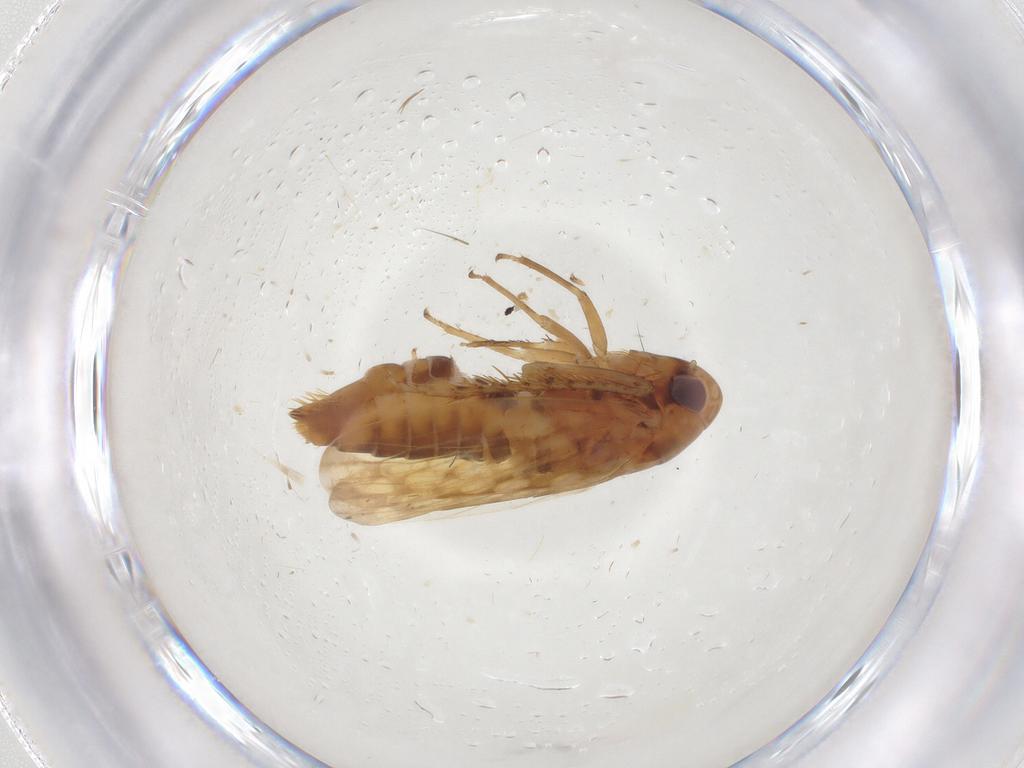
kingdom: Animalia
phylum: Arthropoda
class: Insecta
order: Hemiptera
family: Cicadellidae
